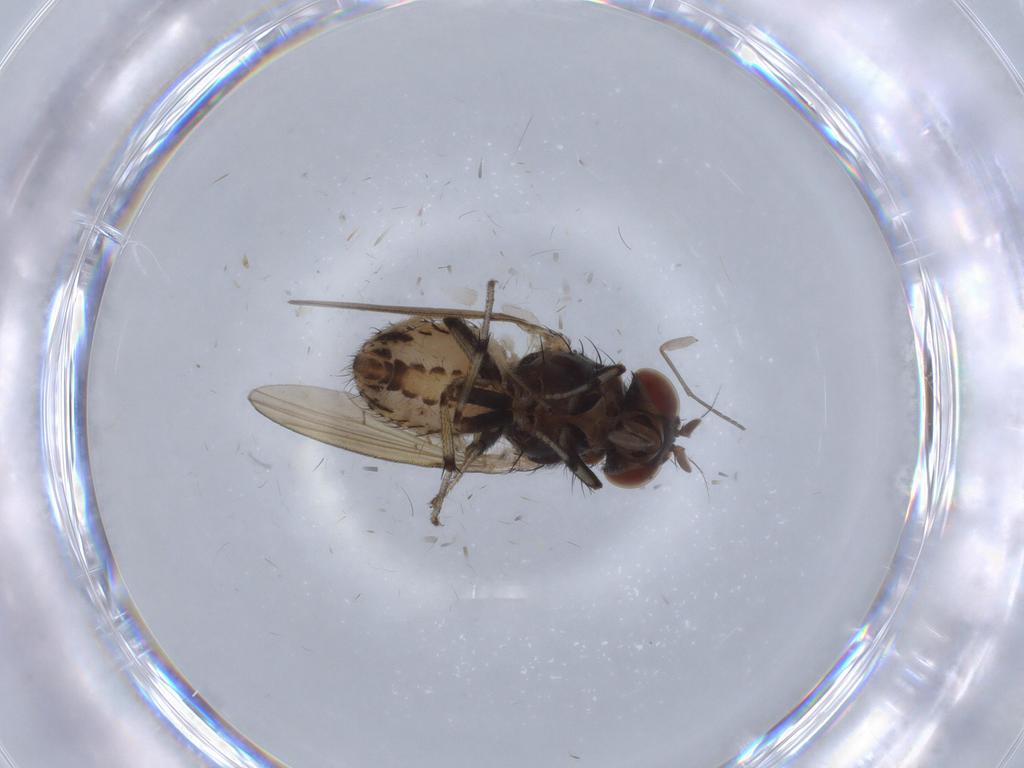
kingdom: Animalia
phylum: Arthropoda
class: Insecta
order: Diptera
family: Chironomidae
